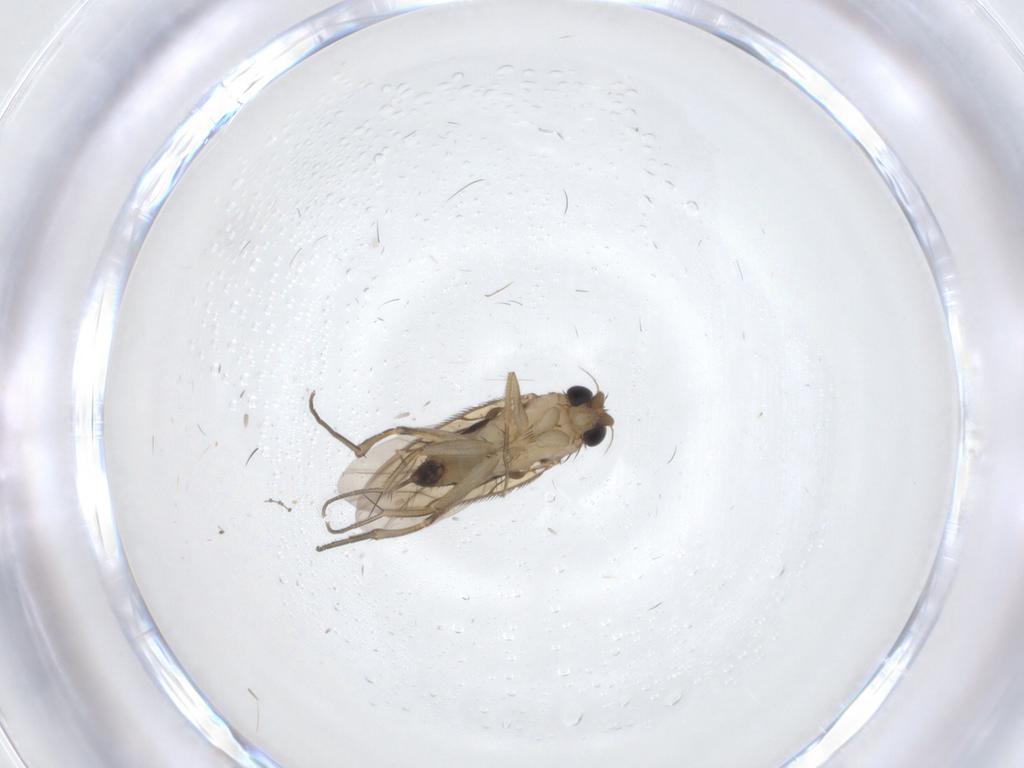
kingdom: Animalia
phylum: Arthropoda
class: Insecta
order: Diptera
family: Phoridae
